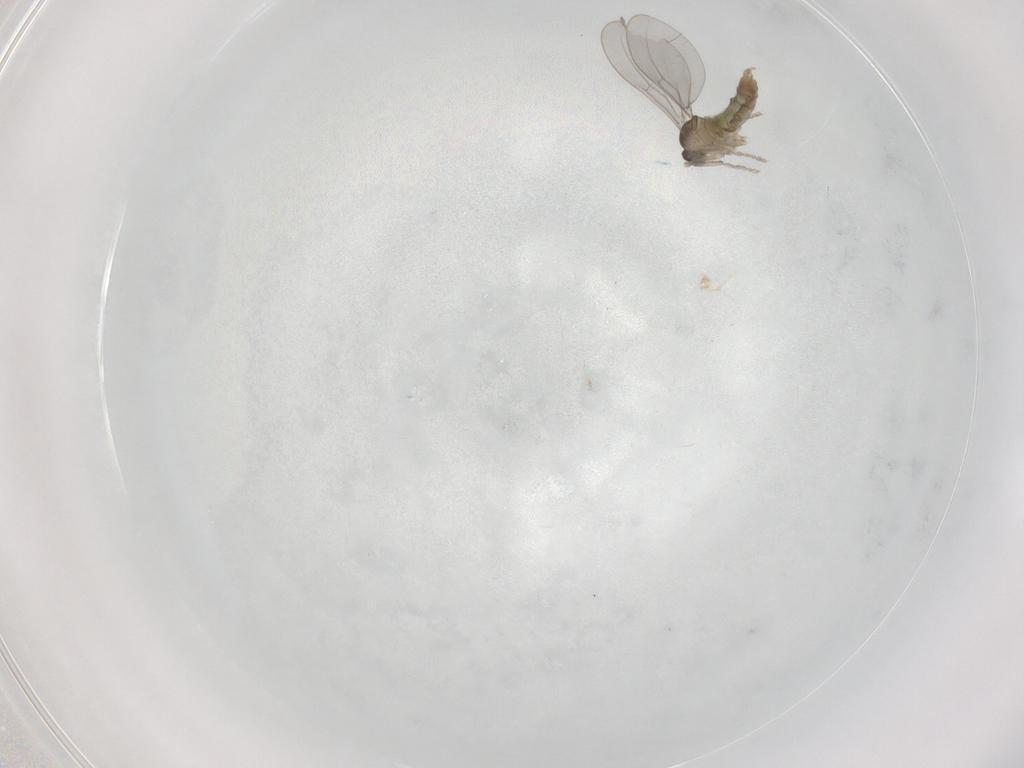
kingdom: Animalia
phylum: Arthropoda
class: Insecta
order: Diptera
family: Cecidomyiidae
